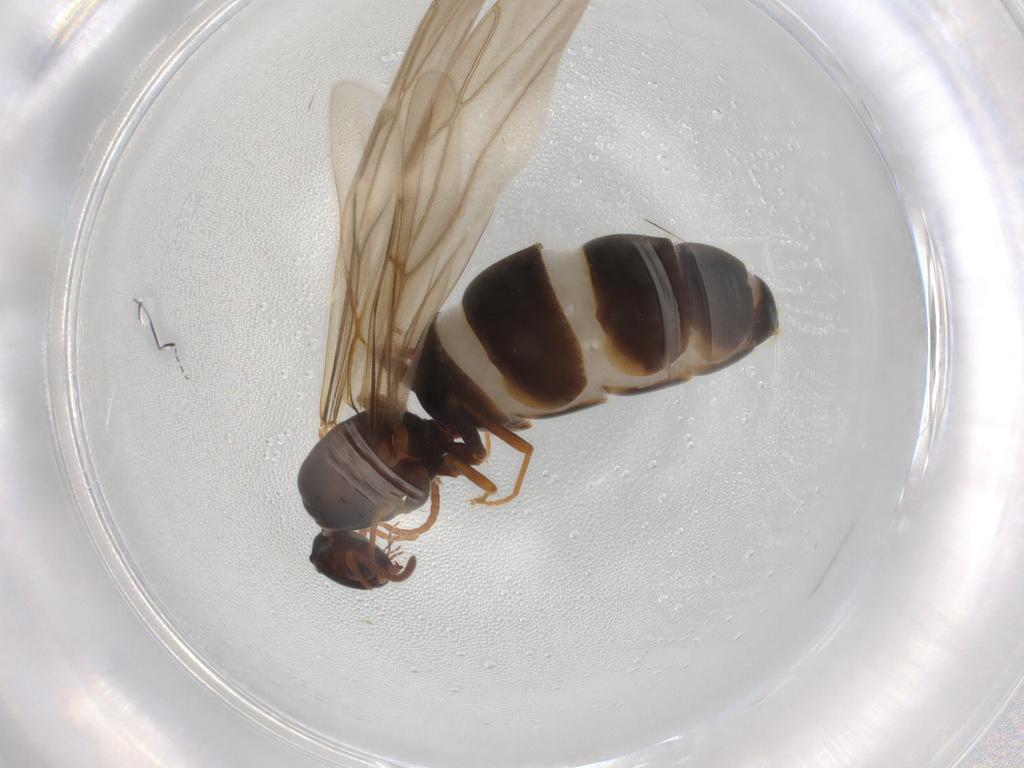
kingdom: Animalia
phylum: Arthropoda
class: Insecta
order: Hymenoptera
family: Formicidae
